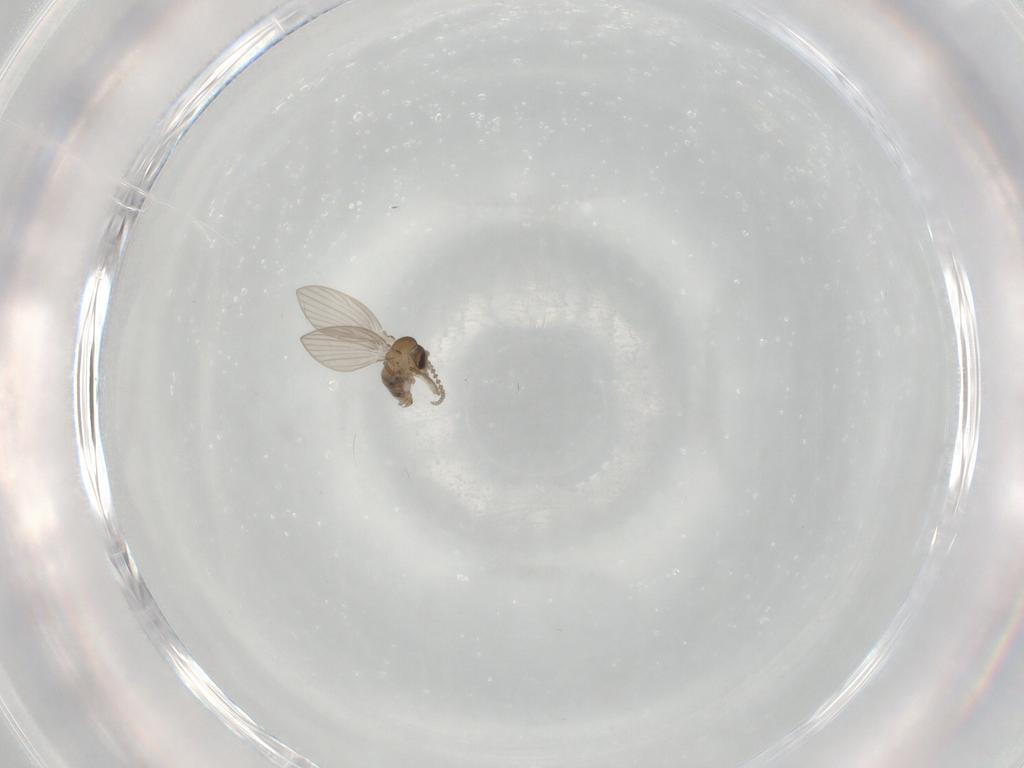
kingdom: Animalia
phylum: Arthropoda
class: Insecta
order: Diptera
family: Psychodidae
